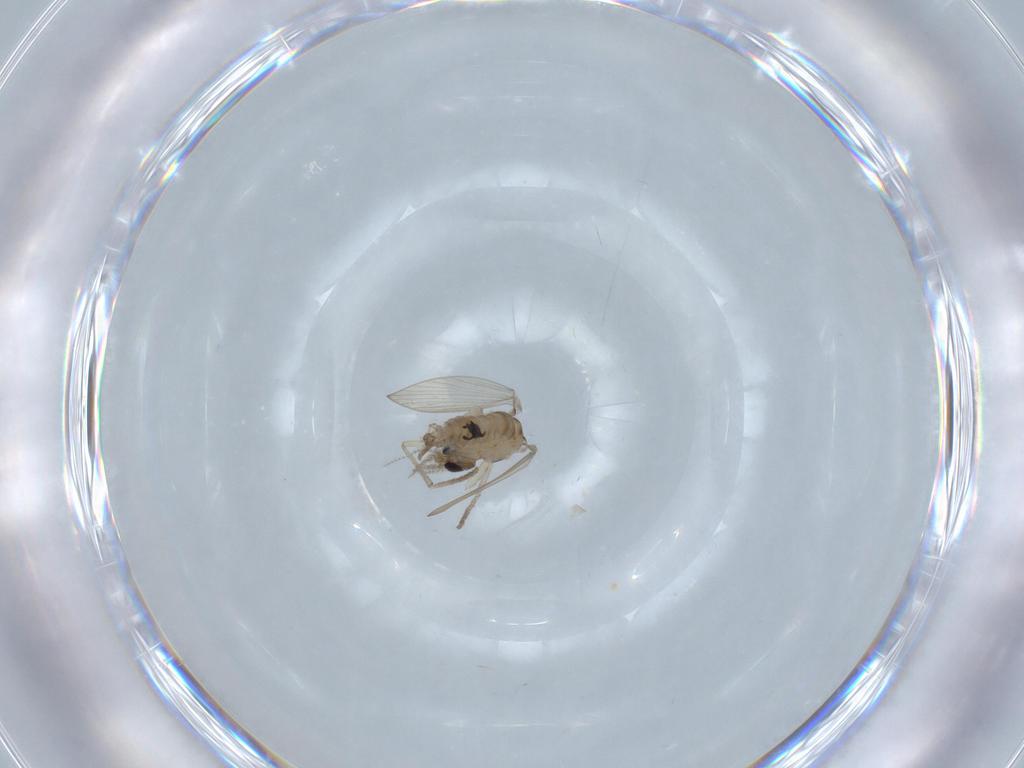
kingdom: Animalia
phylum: Arthropoda
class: Insecta
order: Diptera
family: Psychodidae
